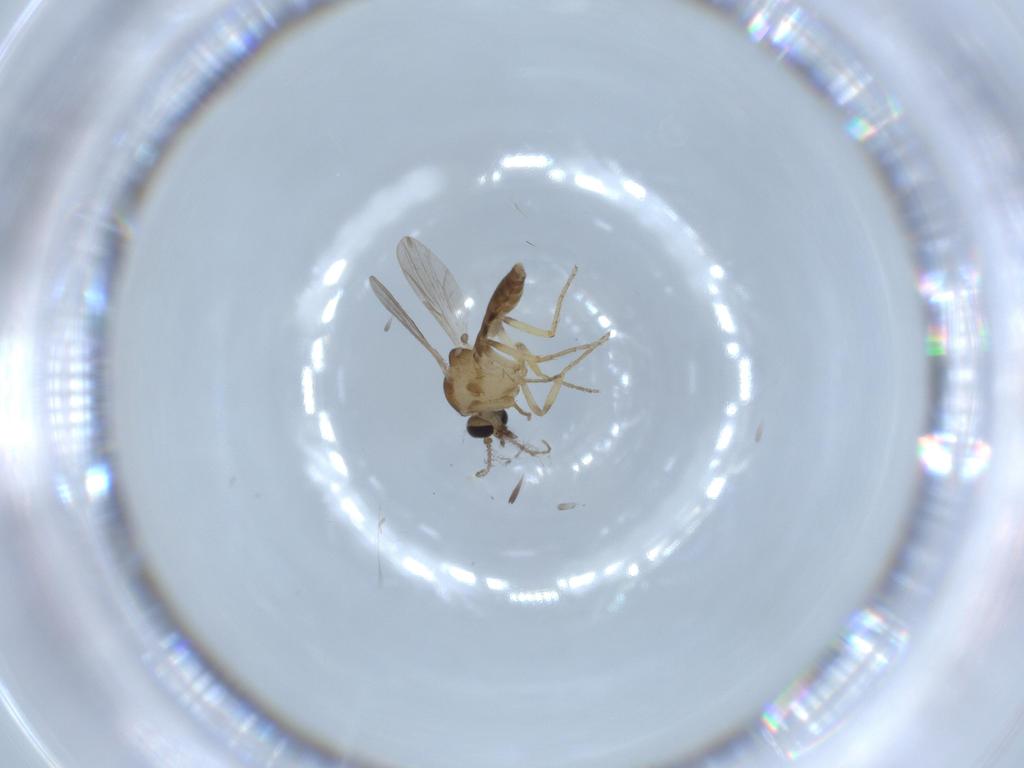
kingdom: Animalia
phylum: Arthropoda
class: Insecta
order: Diptera
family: Ceratopogonidae
